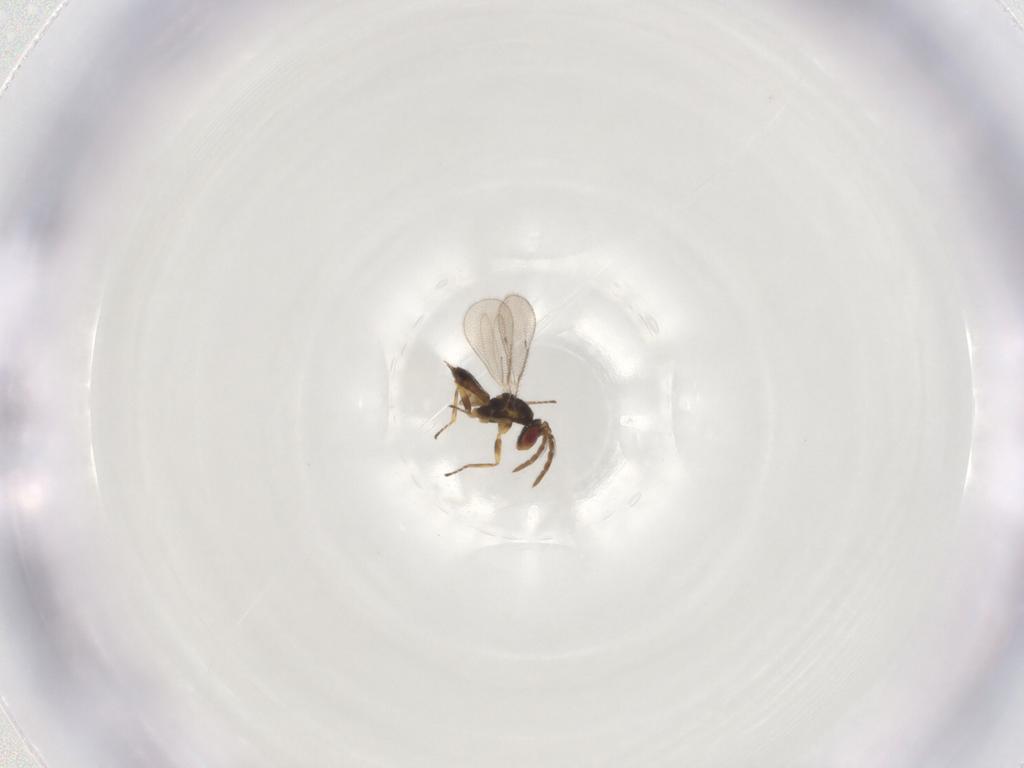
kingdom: Animalia
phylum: Arthropoda
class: Insecta
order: Hymenoptera
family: Eulophidae
